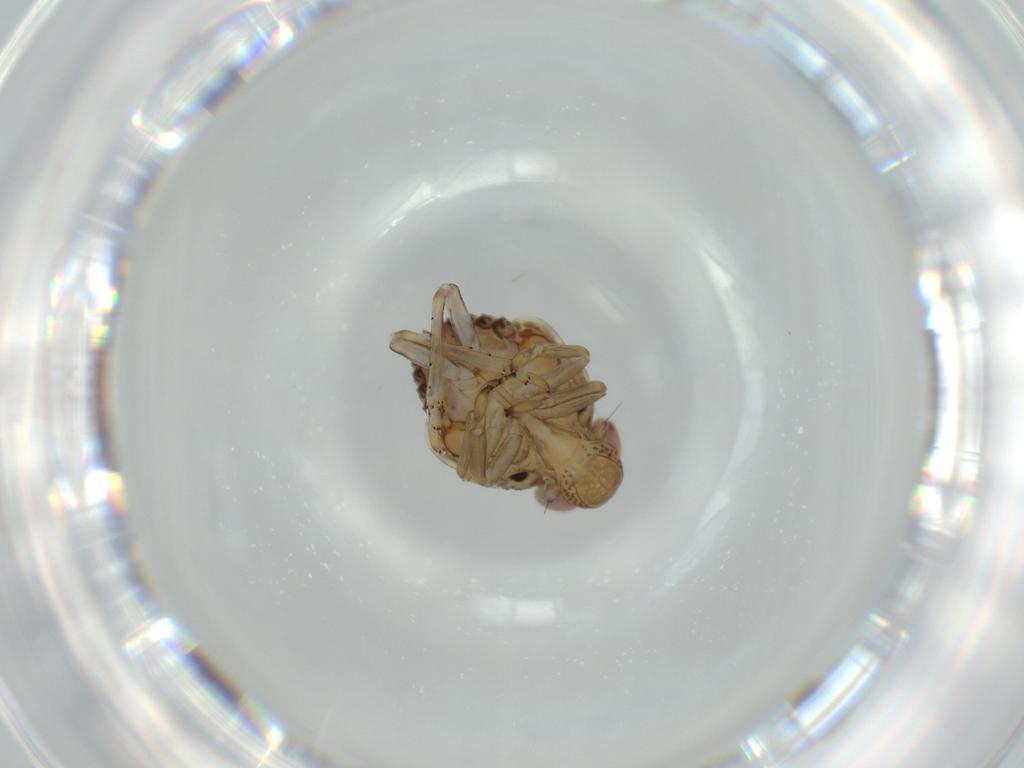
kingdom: Animalia
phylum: Arthropoda
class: Insecta
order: Hemiptera
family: Issidae
